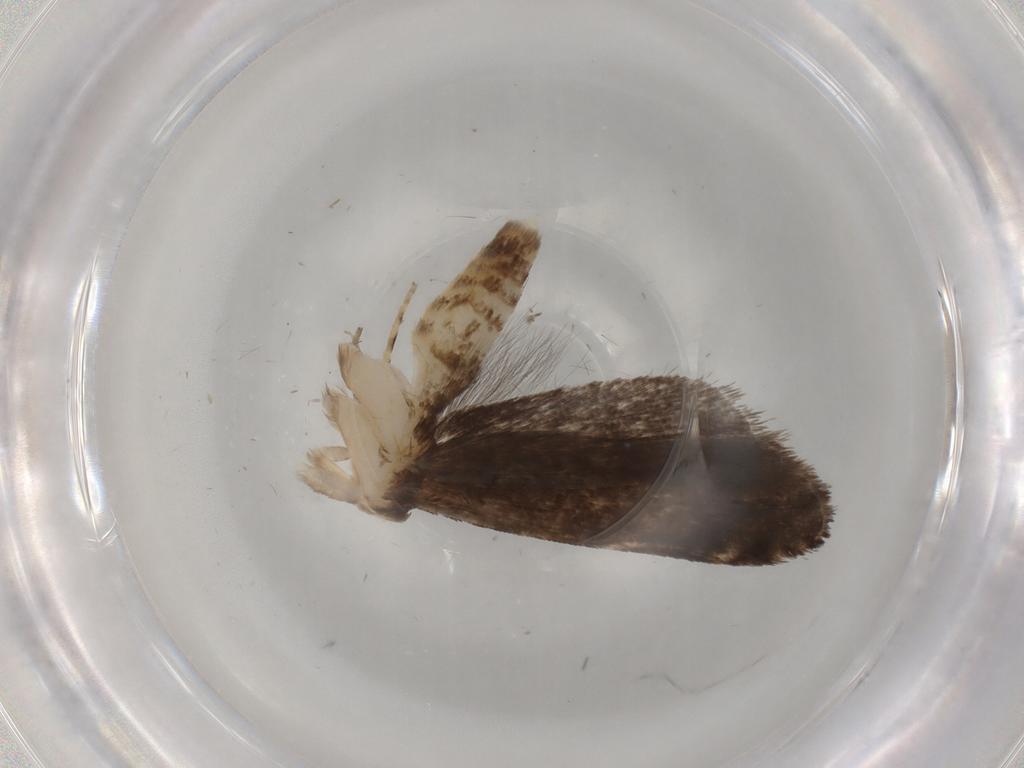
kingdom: Animalia
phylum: Arthropoda
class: Insecta
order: Lepidoptera
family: Gelechiidae
